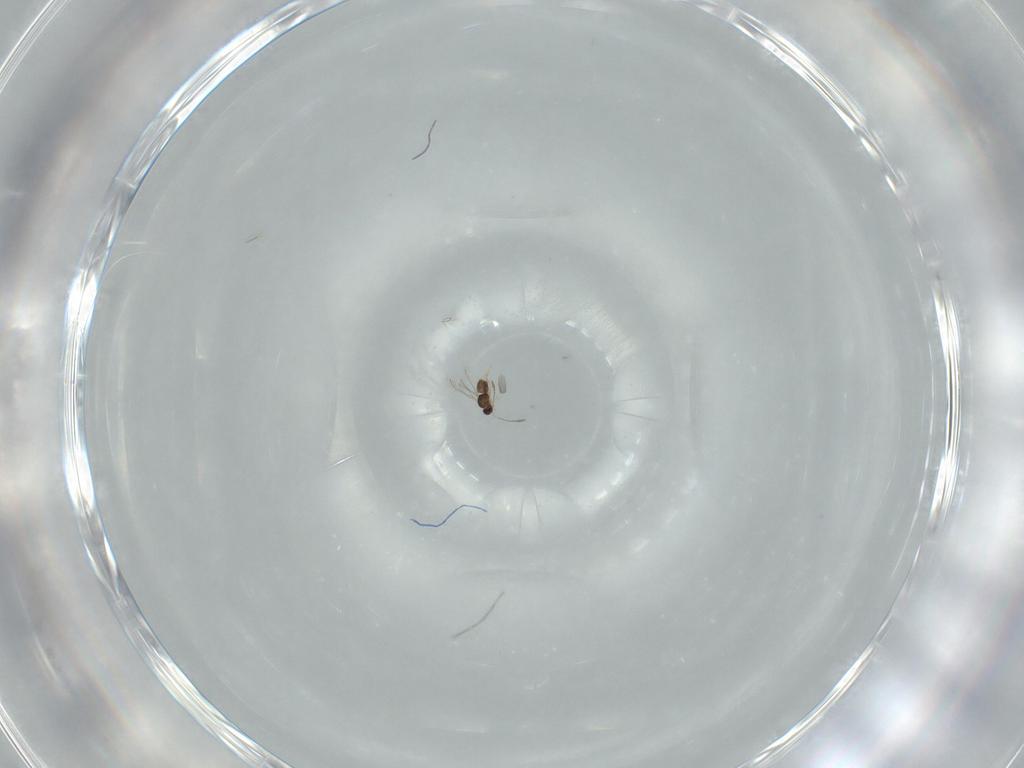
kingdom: Animalia
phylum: Arthropoda
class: Insecta
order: Hymenoptera
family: Mymaridae
